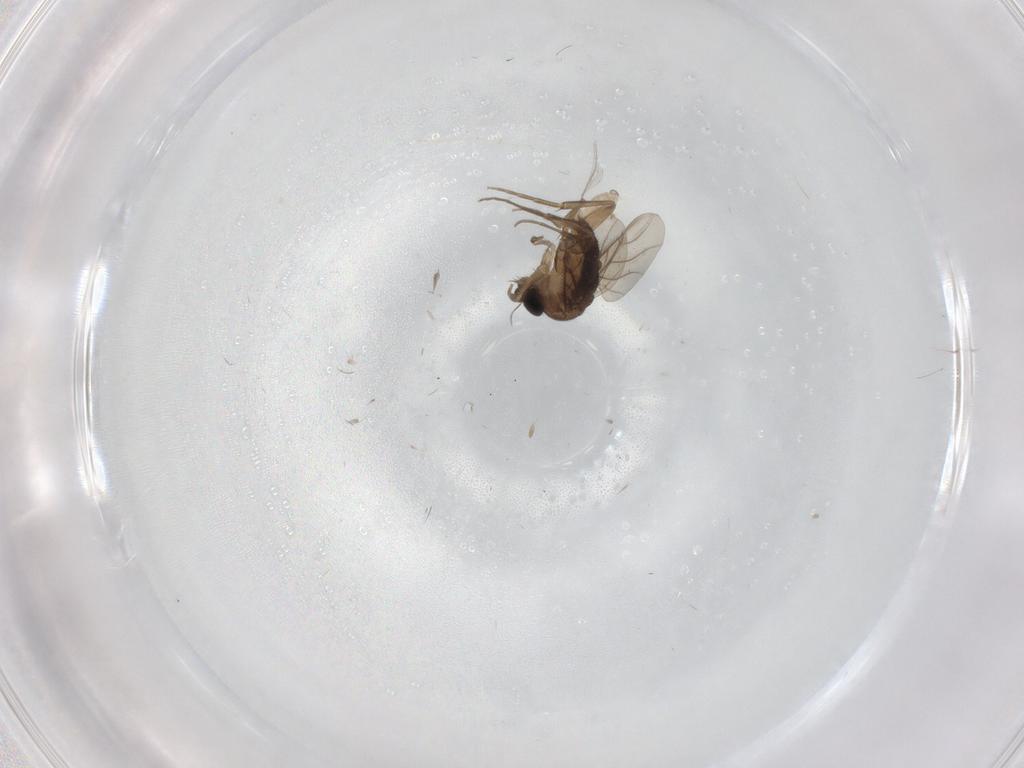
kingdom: Animalia
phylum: Arthropoda
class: Insecta
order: Diptera
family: Phoridae
